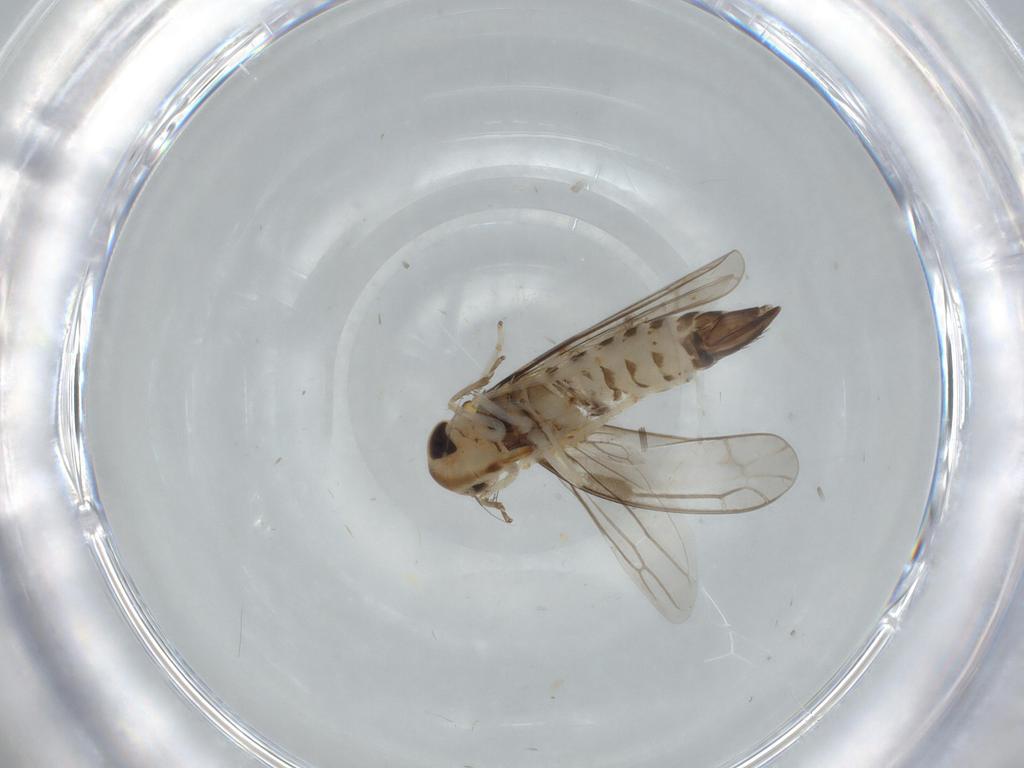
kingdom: Animalia
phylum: Arthropoda
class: Insecta
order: Hemiptera
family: Cicadellidae
